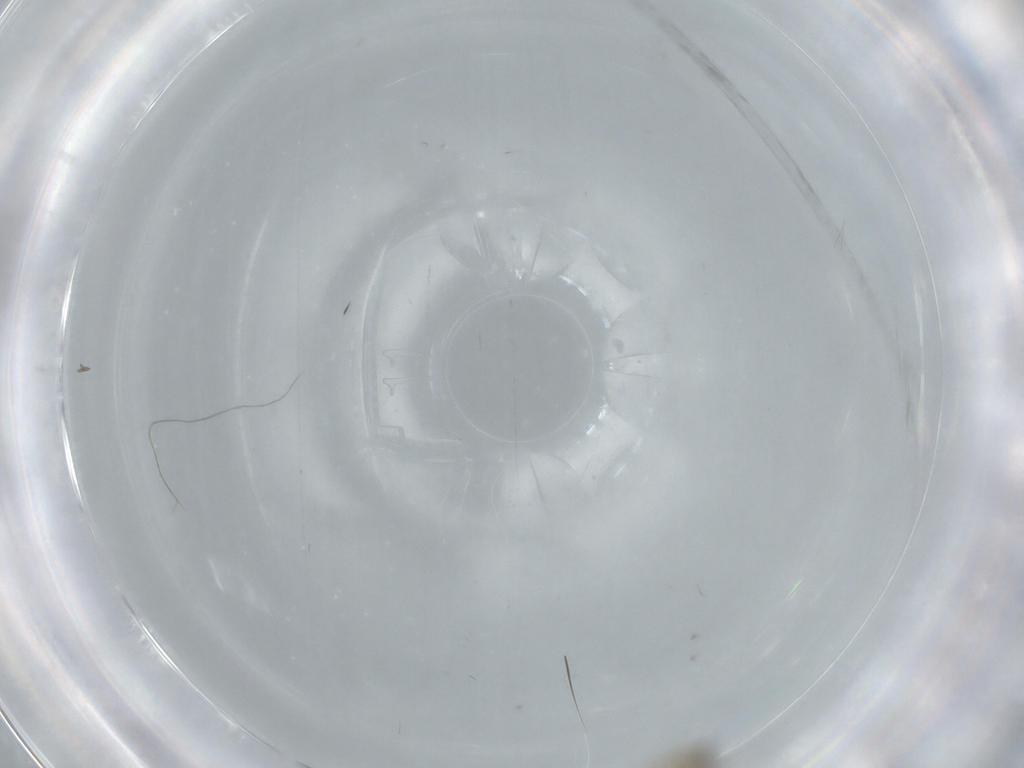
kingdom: Animalia
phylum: Arthropoda
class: Insecta
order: Diptera
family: Cecidomyiidae
